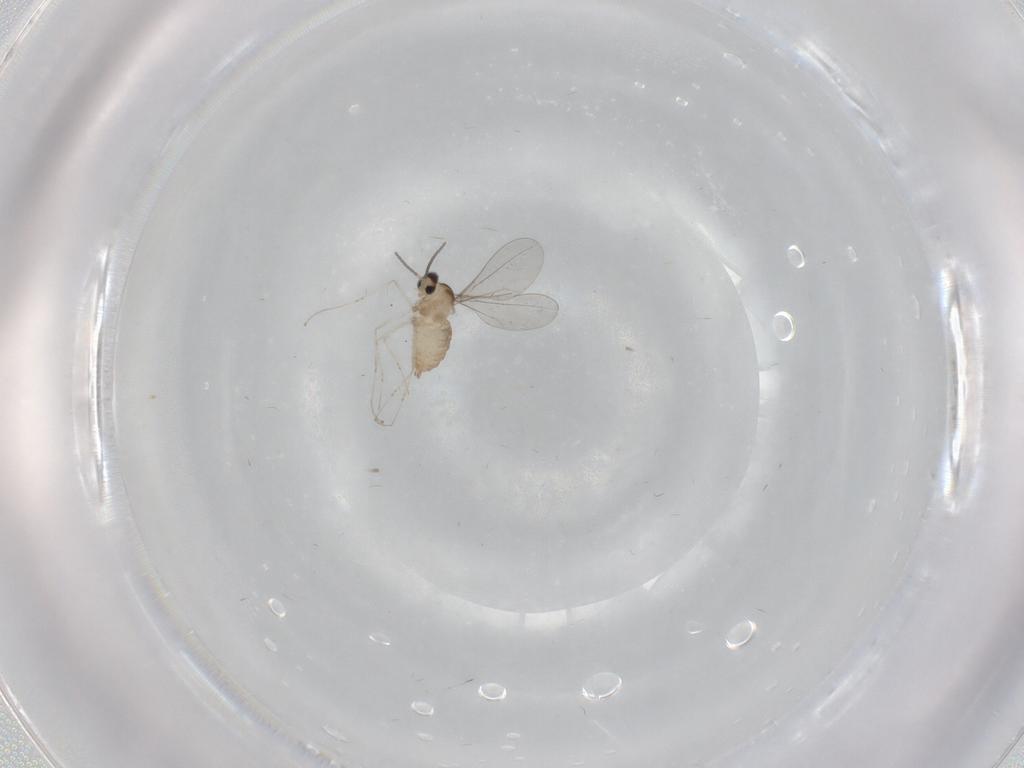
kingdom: Animalia
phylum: Arthropoda
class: Insecta
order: Diptera
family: Cecidomyiidae
